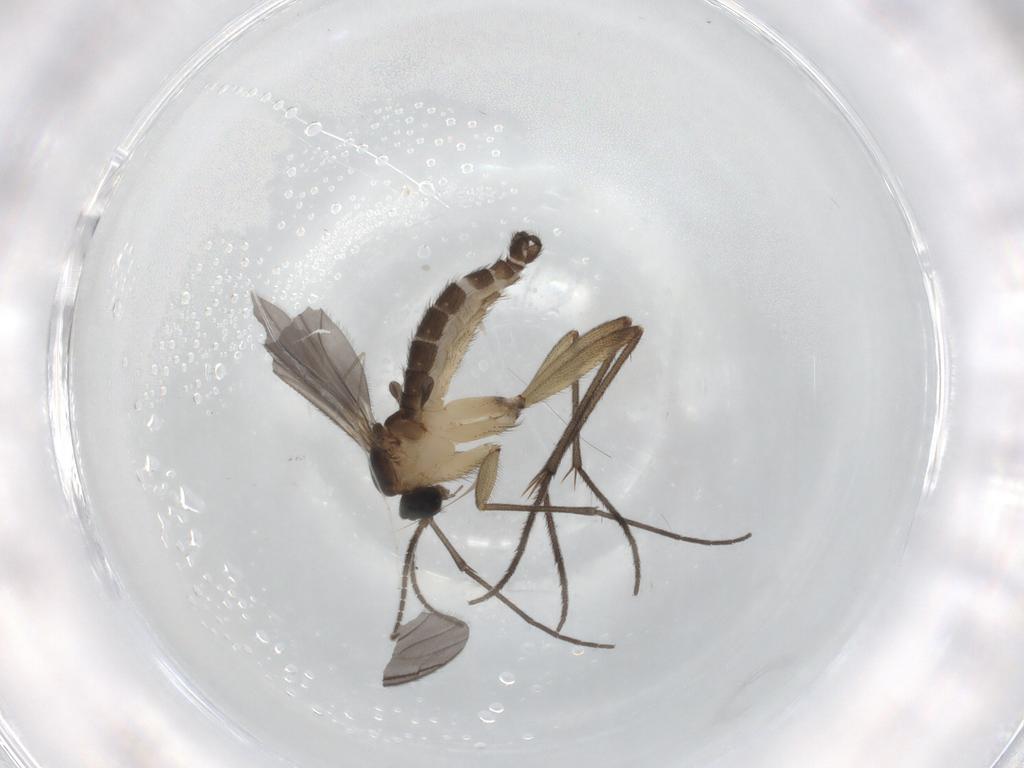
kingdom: Animalia
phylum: Arthropoda
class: Insecta
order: Diptera
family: Sciaridae
